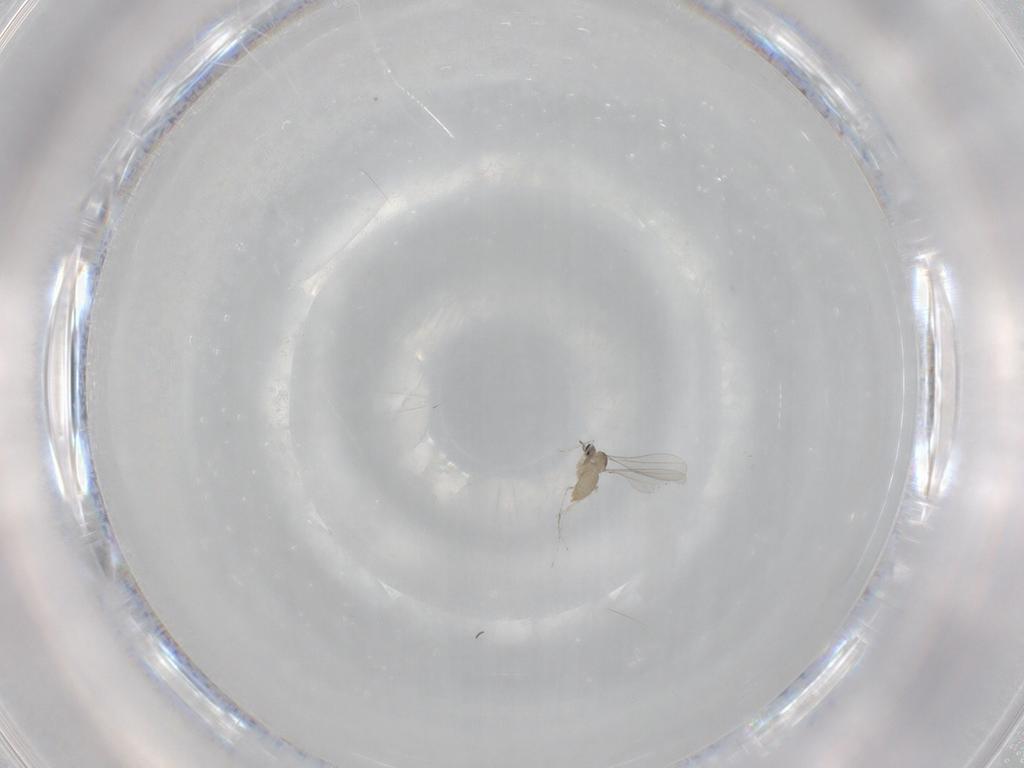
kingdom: Animalia
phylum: Arthropoda
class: Insecta
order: Diptera
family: Cecidomyiidae
